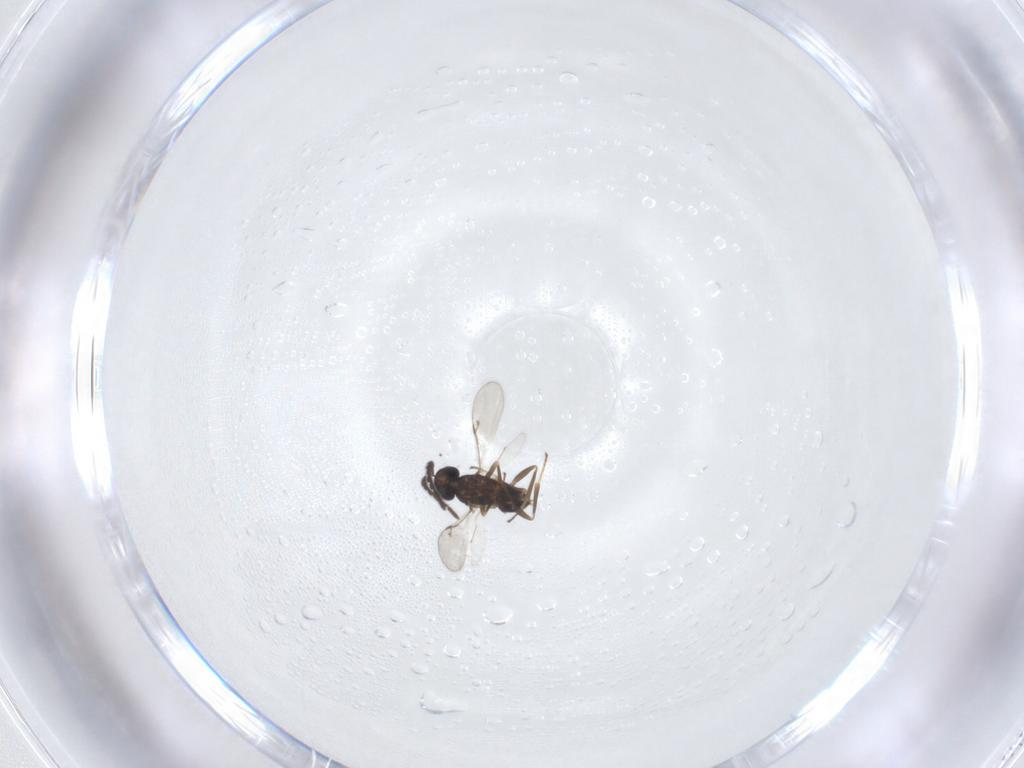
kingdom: Animalia
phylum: Arthropoda
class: Insecta
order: Hymenoptera
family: Encyrtidae
